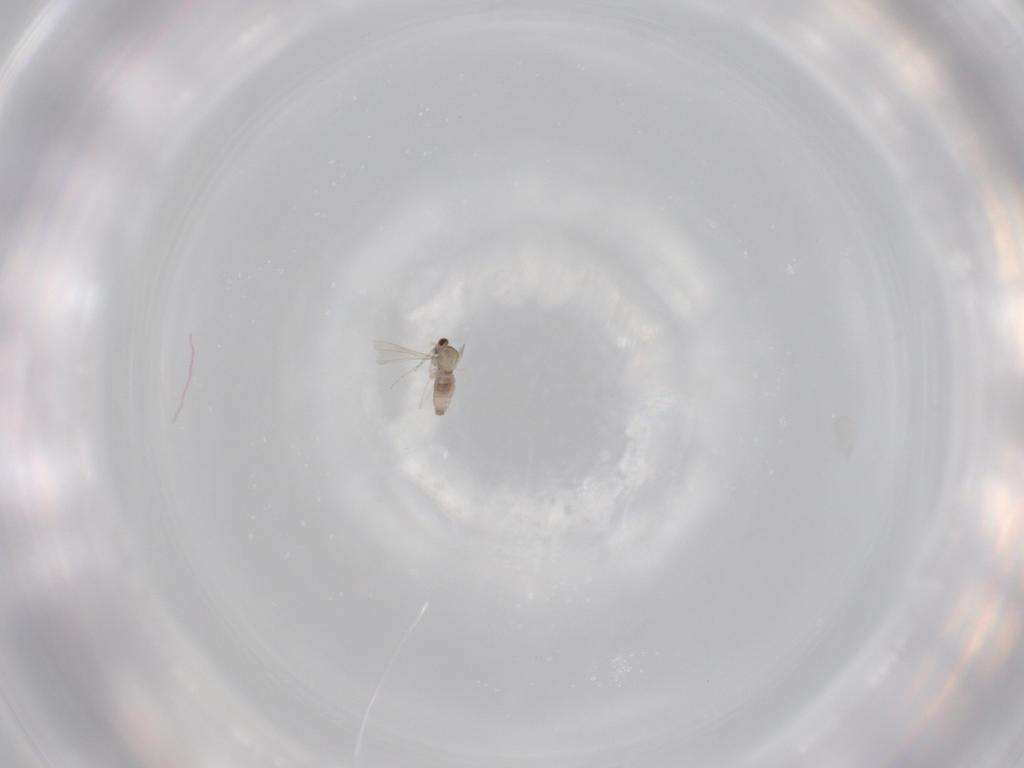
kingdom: Animalia
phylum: Arthropoda
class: Insecta
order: Diptera
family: Cecidomyiidae
